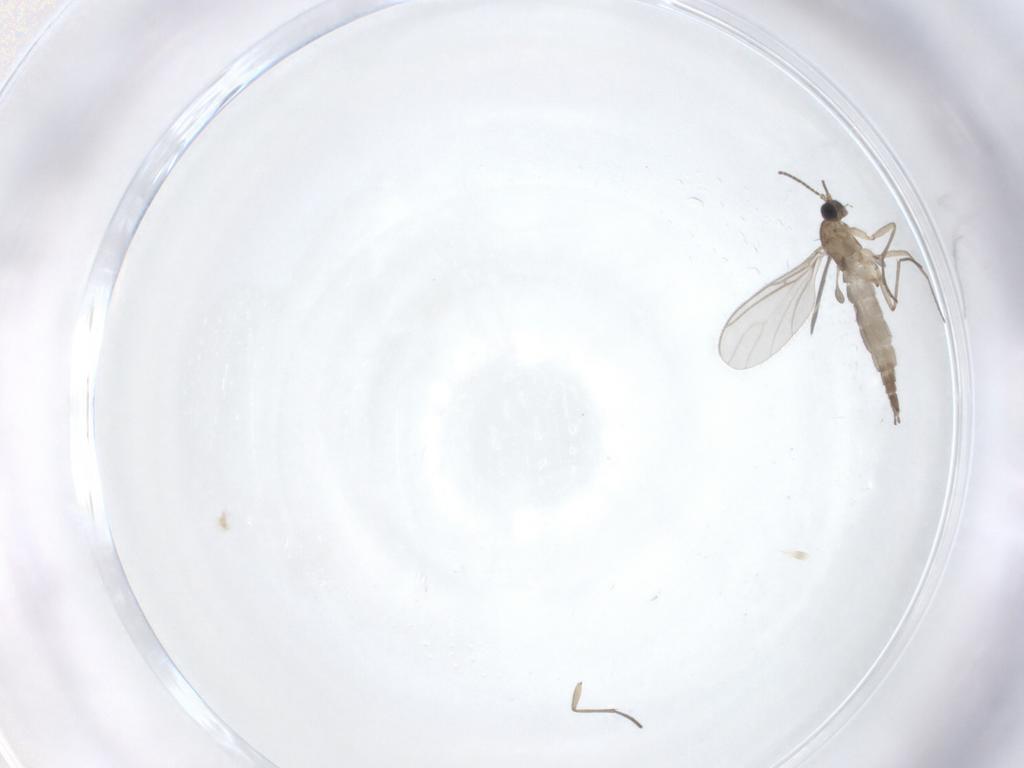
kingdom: Animalia
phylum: Arthropoda
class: Insecta
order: Diptera
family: Sciaridae
